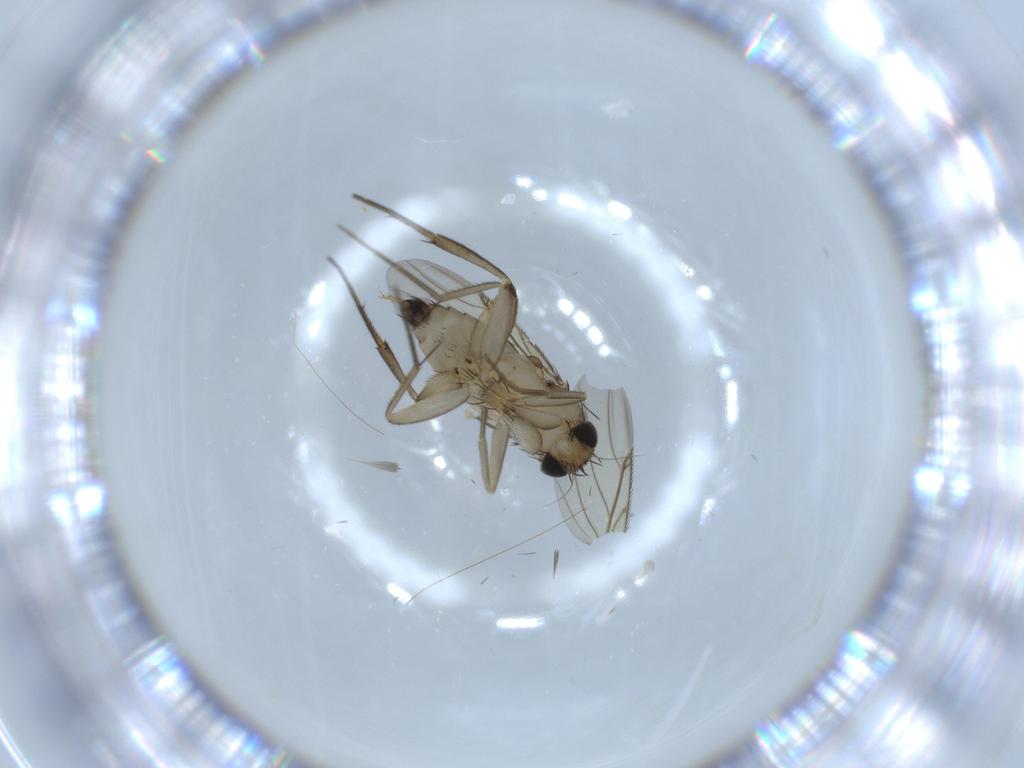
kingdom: Animalia
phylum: Arthropoda
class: Insecta
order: Diptera
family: Phoridae
